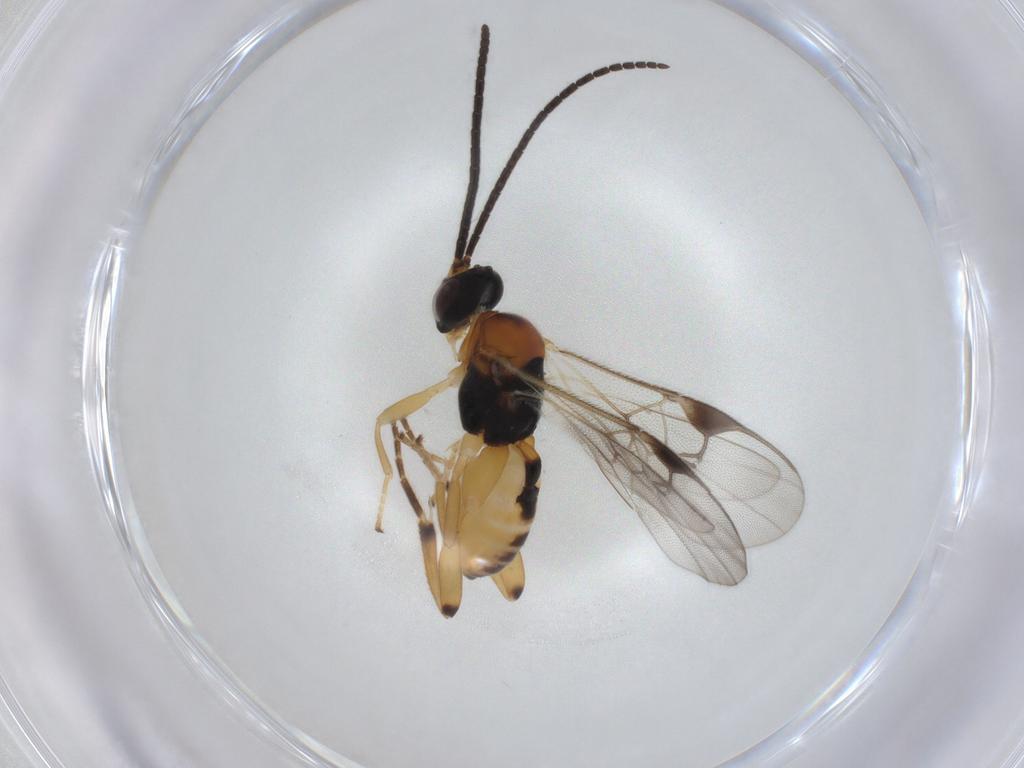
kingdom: Animalia
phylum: Arthropoda
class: Insecta
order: Hymenoptera
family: Braconidae
